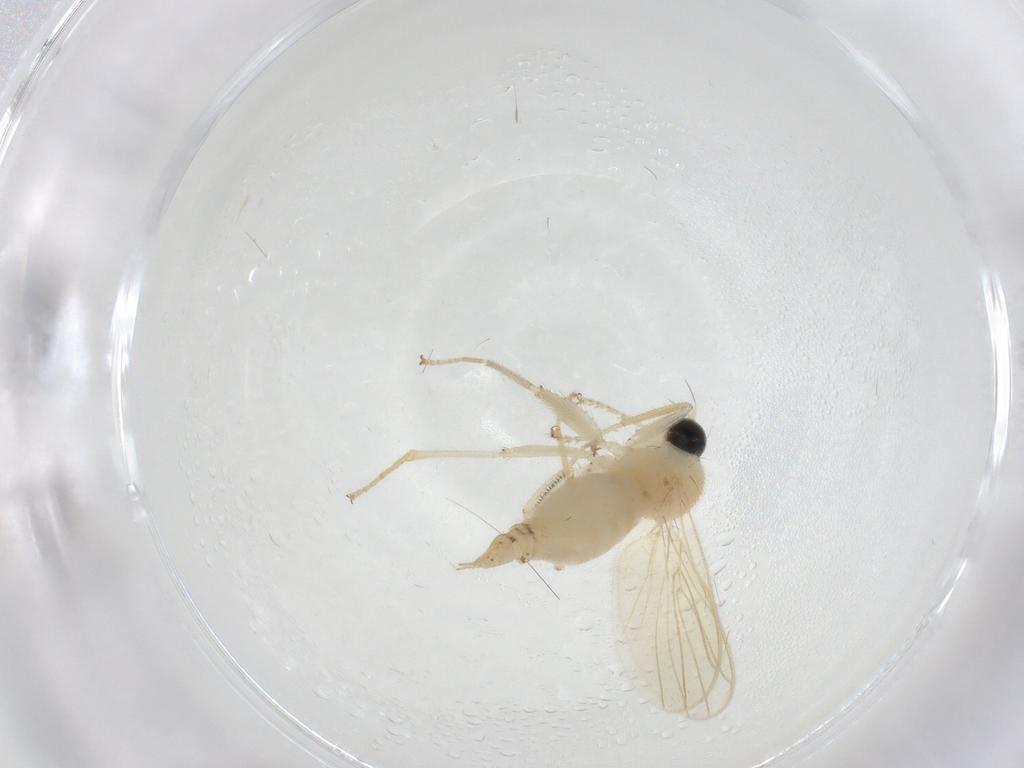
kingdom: Animalia
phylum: Arthropoda
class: Insecta
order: Diptera
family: Hybotidae
